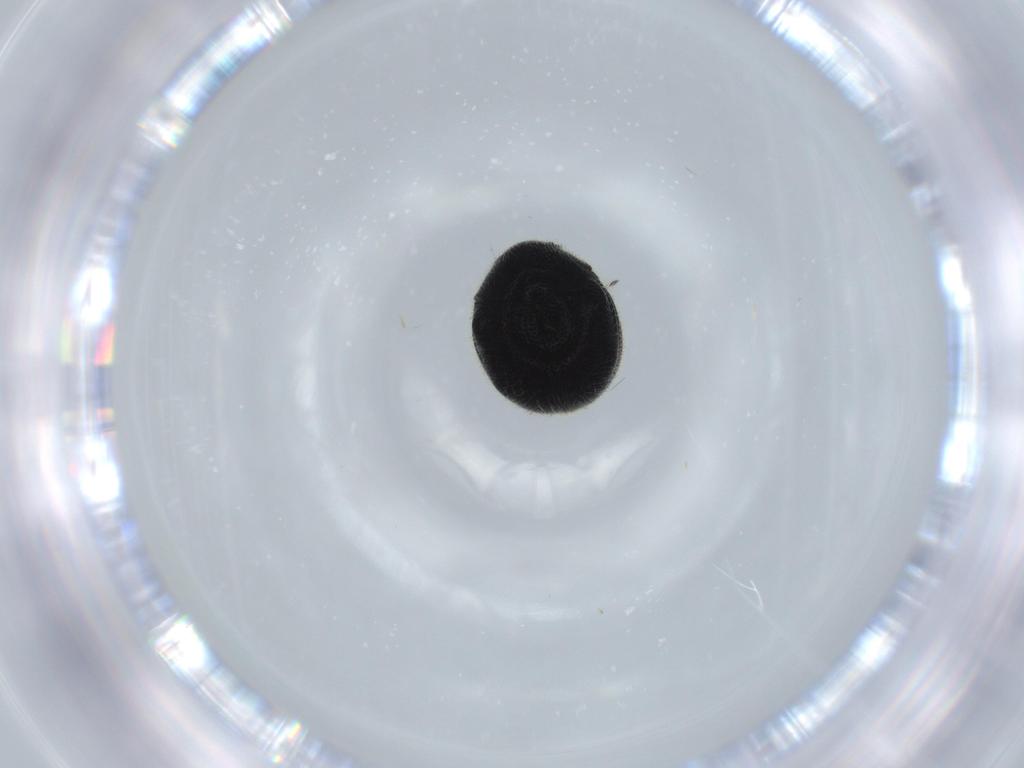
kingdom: Animalia
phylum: Arthropoda
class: Insecta
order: Coleoptera
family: Ptinidae
